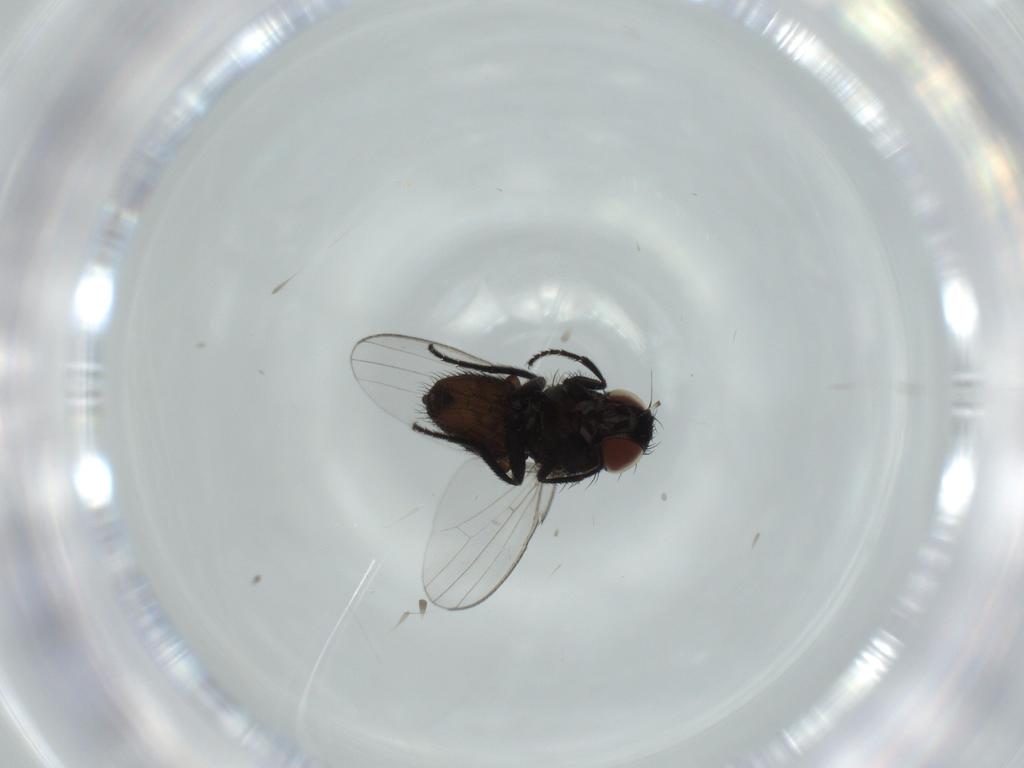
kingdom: Animalia
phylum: Arthropoda
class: Insecta
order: Diptera
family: Milichiidae
